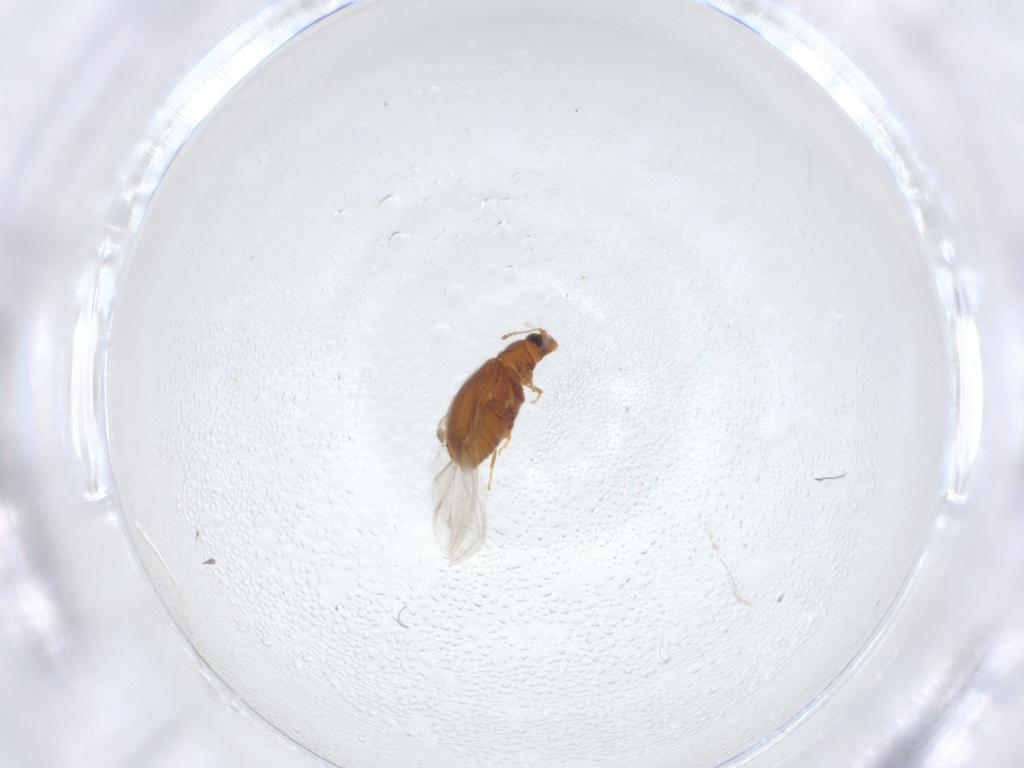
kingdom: Animalia
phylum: Arthropoda
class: Insecta
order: Coleoptera
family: Latridiidae
